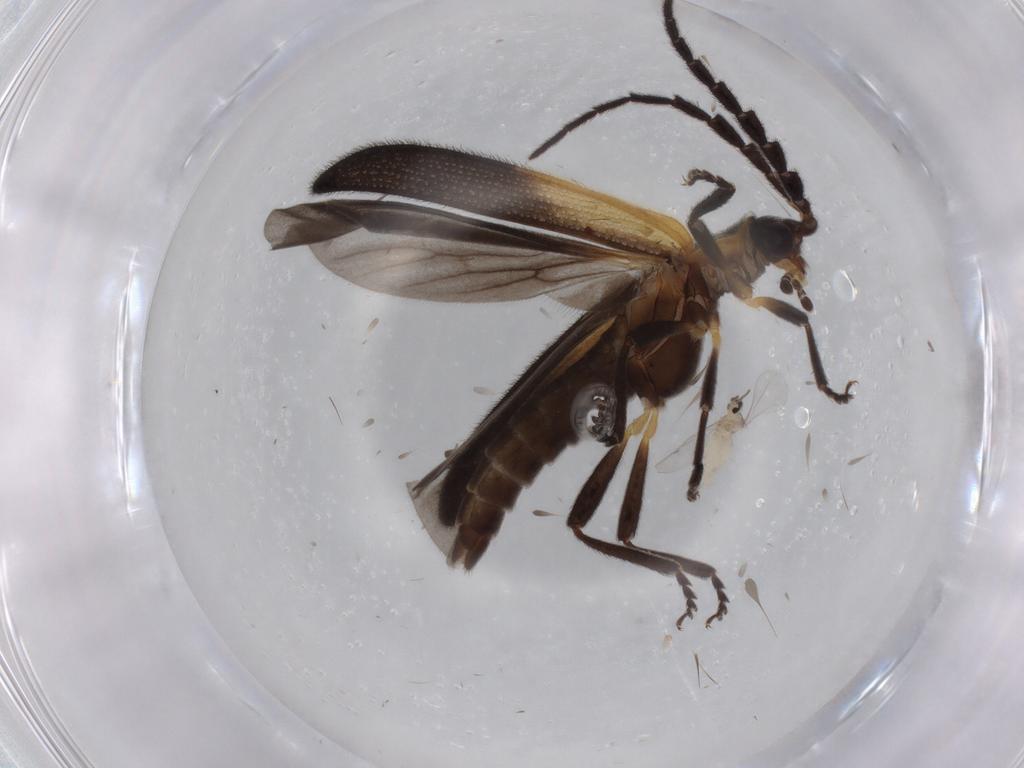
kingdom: Animalia
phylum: Arthropoda
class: Insecta
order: Coleoptera
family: Lycidae
